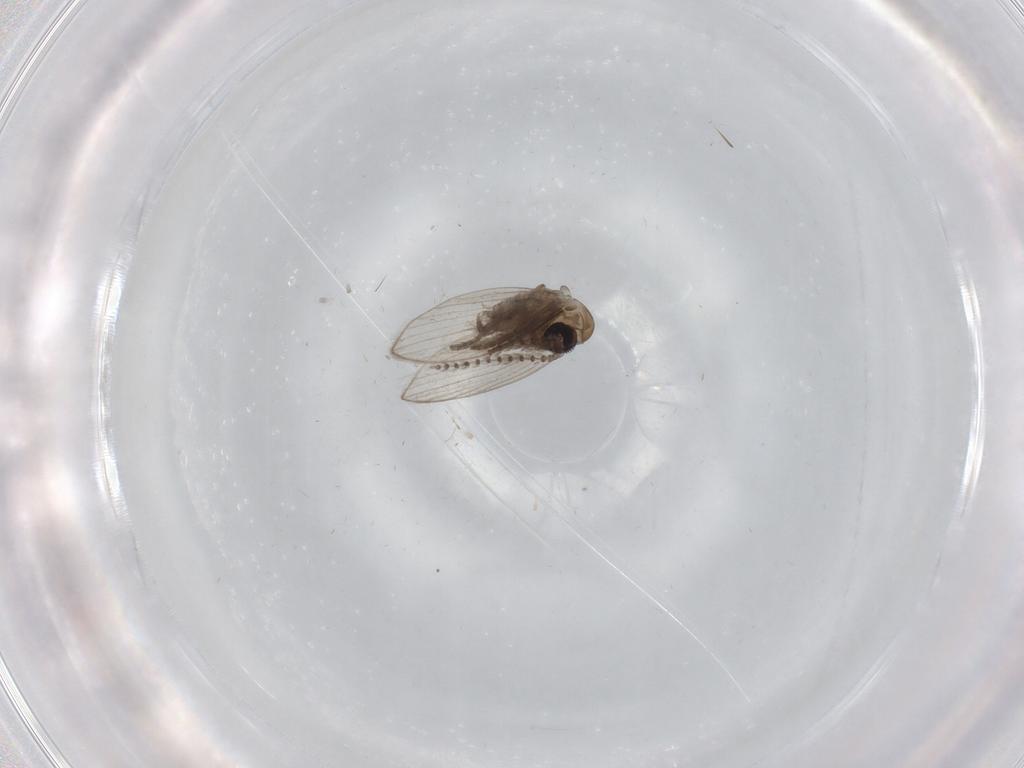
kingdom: Animalia
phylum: Arthropoda
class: Insecta
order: Diptera
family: Psychodidae
